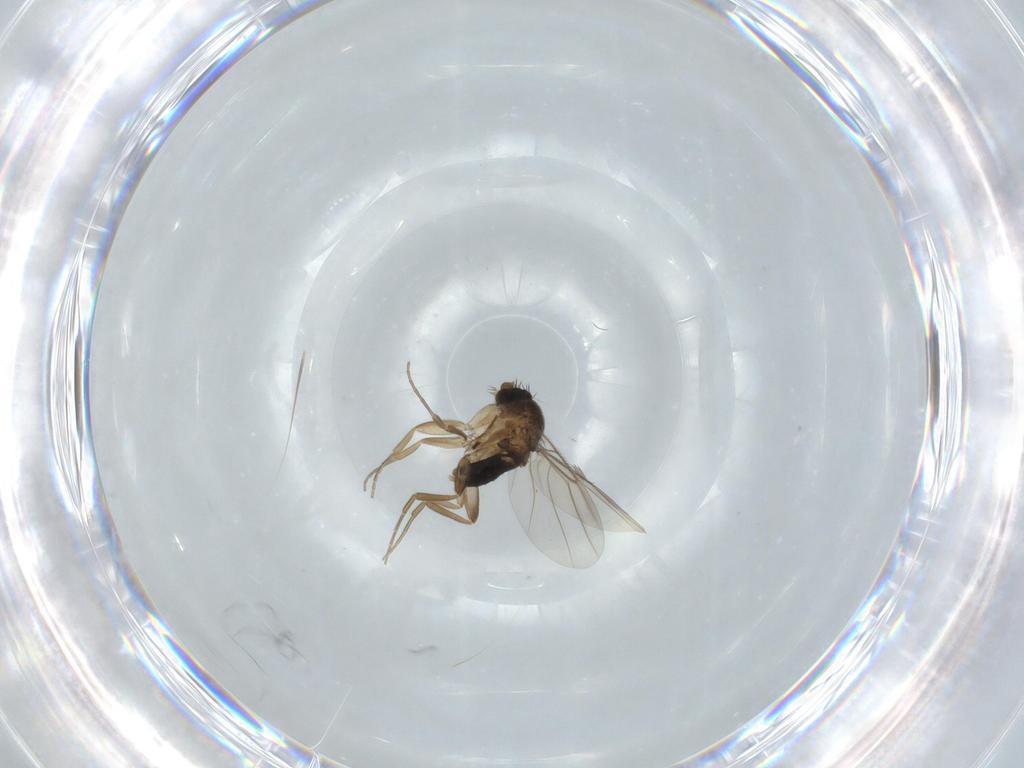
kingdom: Animalia
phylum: Arthropoda
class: Insecta
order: Diptera
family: Phoridae
